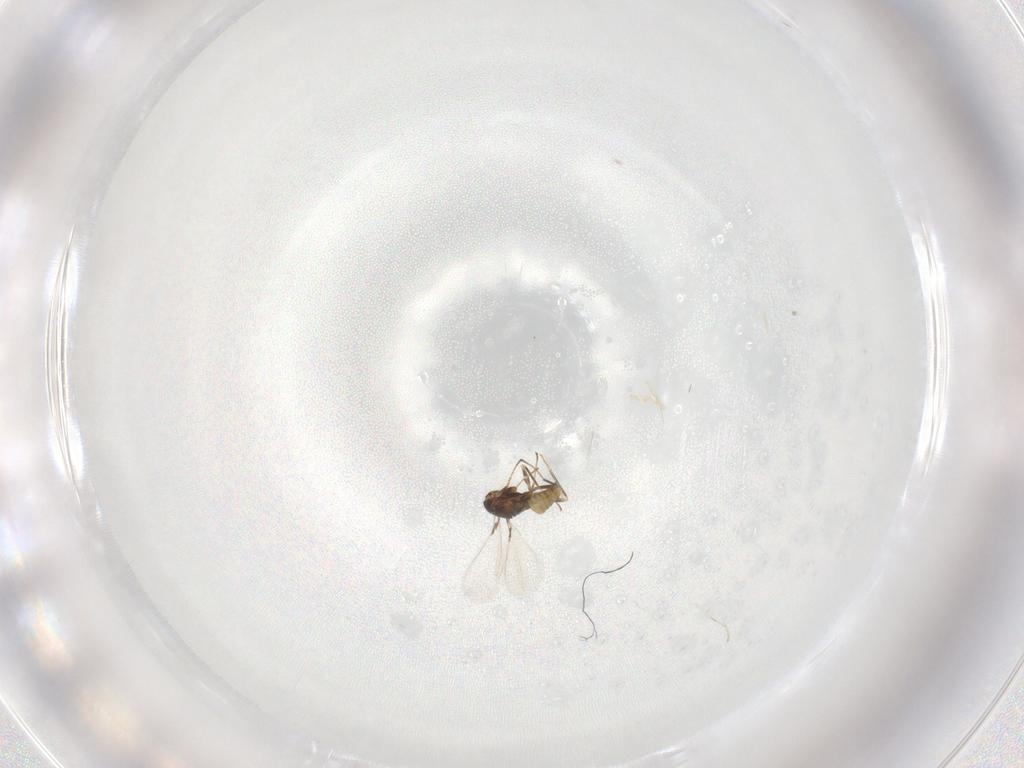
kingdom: Animalia
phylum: Arthropoda
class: Insecta
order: Hymenoptera
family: Mymaridae
